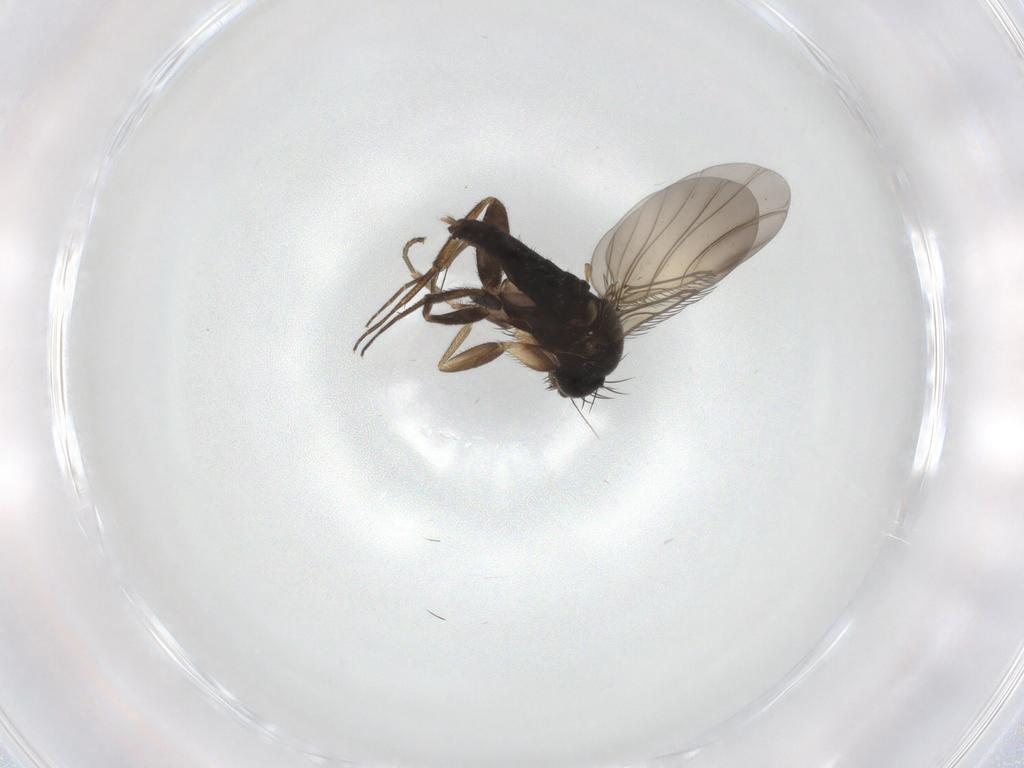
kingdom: Animalia
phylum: Arthropoda
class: Insecta
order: Diptera
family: Phoridae
